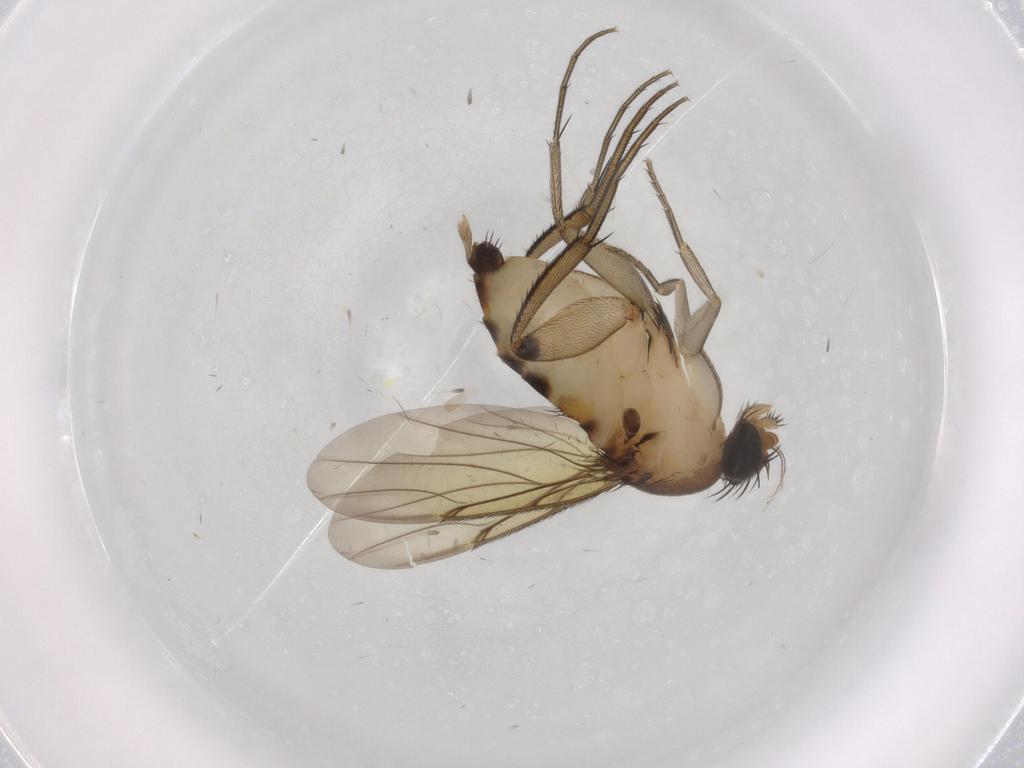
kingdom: Animalia
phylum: Arthropoda
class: Insecta
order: Diptera
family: Phoridae
